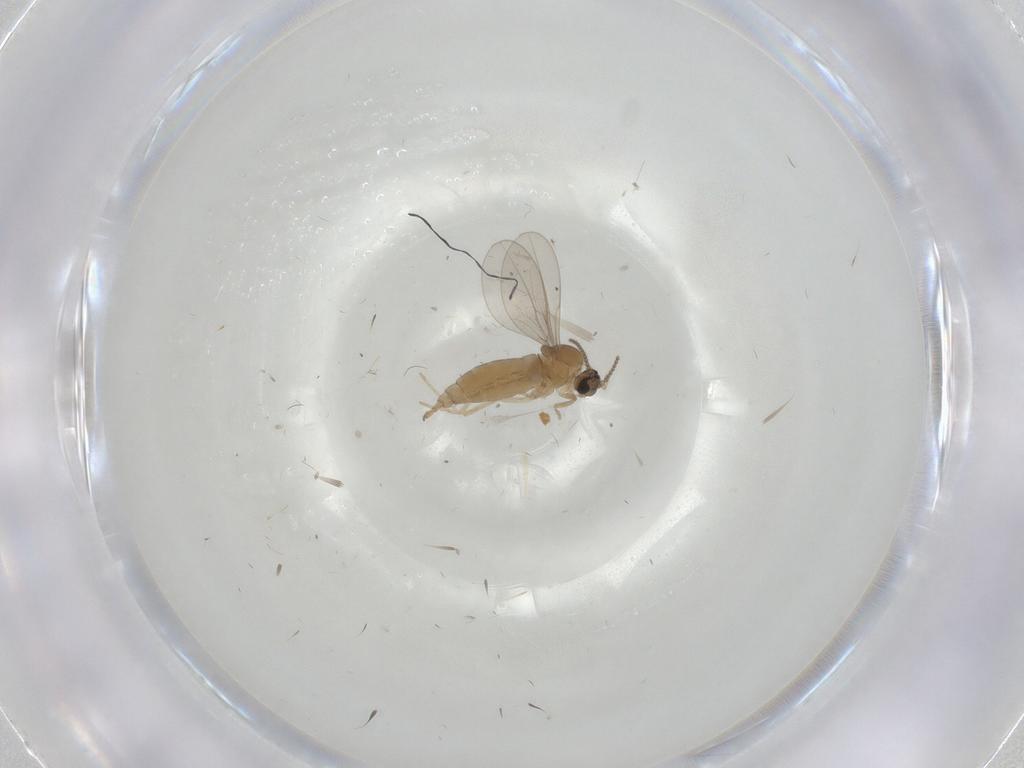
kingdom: Animalia
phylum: Arthropoda
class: Insecta
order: Diptera
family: Cecidomyiidae
